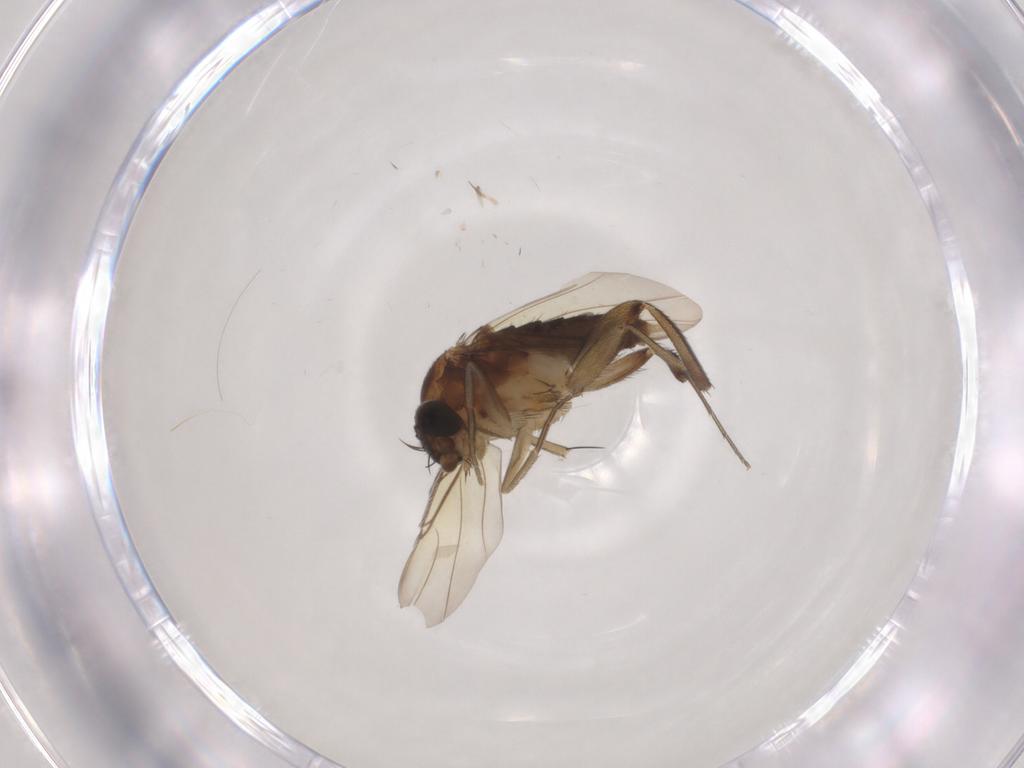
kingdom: Animalia
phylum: Arthropoda
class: Insecta
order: Diptera
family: Phoridae
